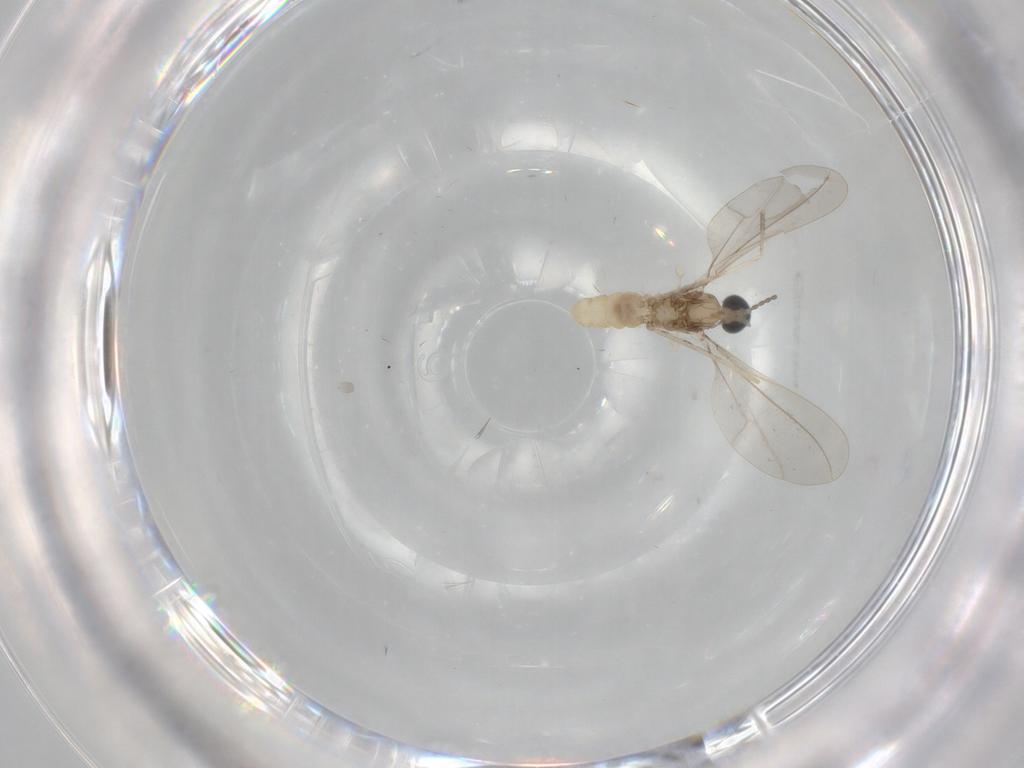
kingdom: Animalia
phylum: Arthropoda
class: Insecta
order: Diptera
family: Cecidomyiidae
